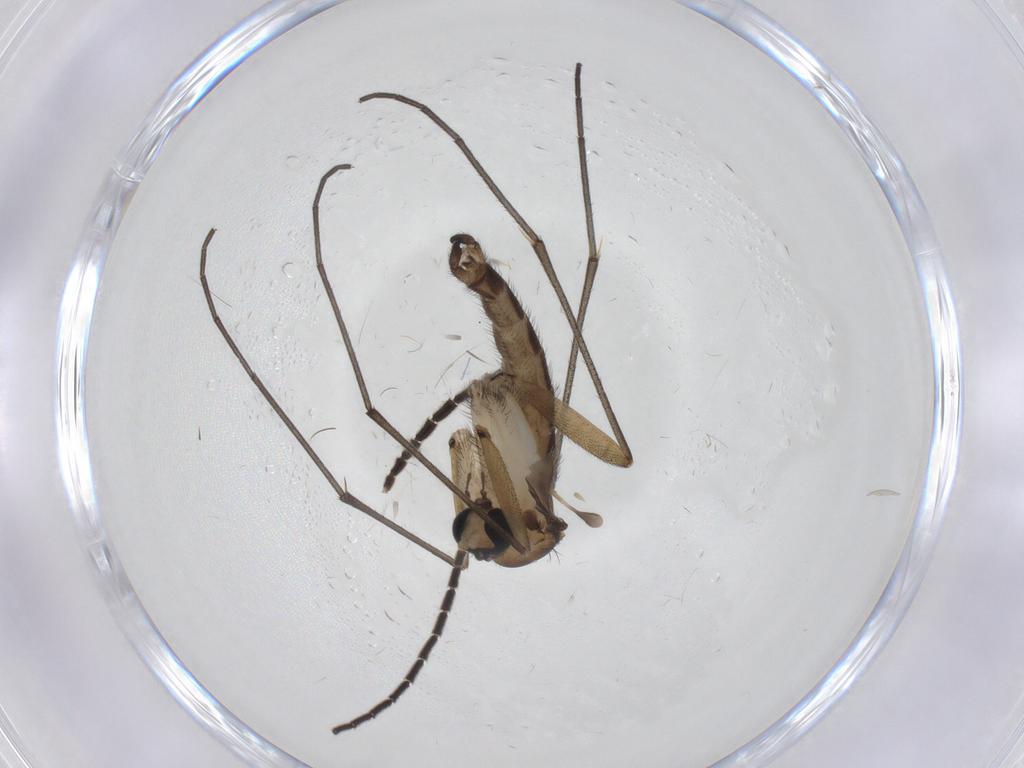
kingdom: Animalia
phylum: Arthropoda
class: Insecta
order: Diptera
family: Sciaridae
